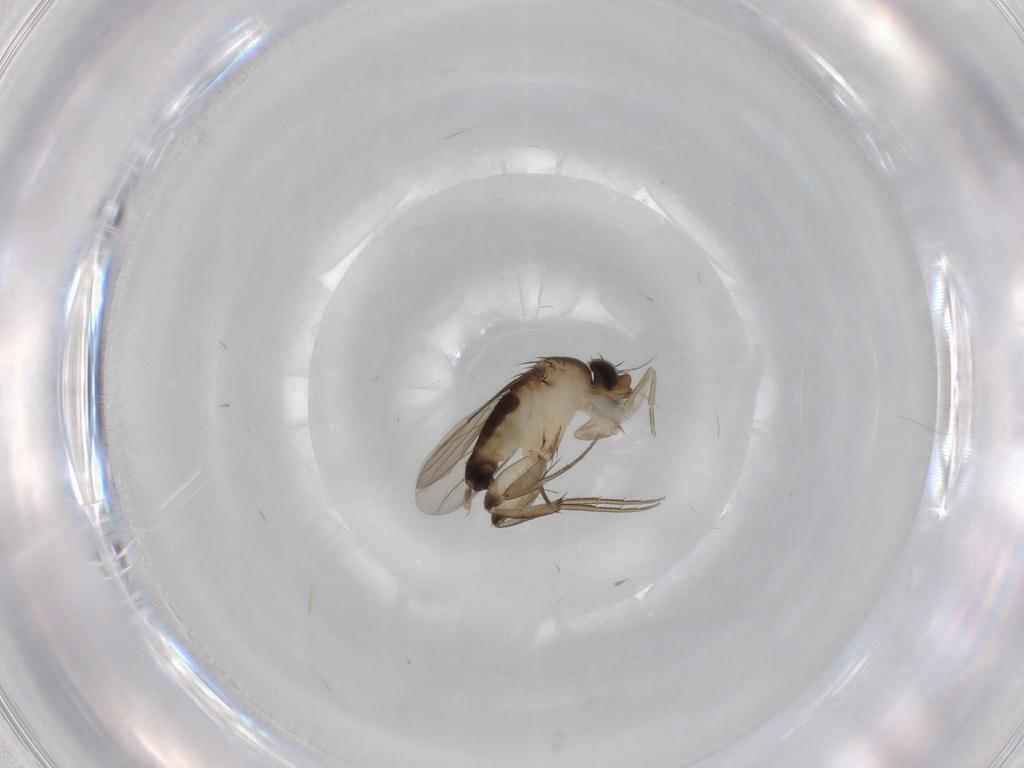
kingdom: Animalia
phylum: Arthropoda
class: Insecta
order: Diptera
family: Phoridae
